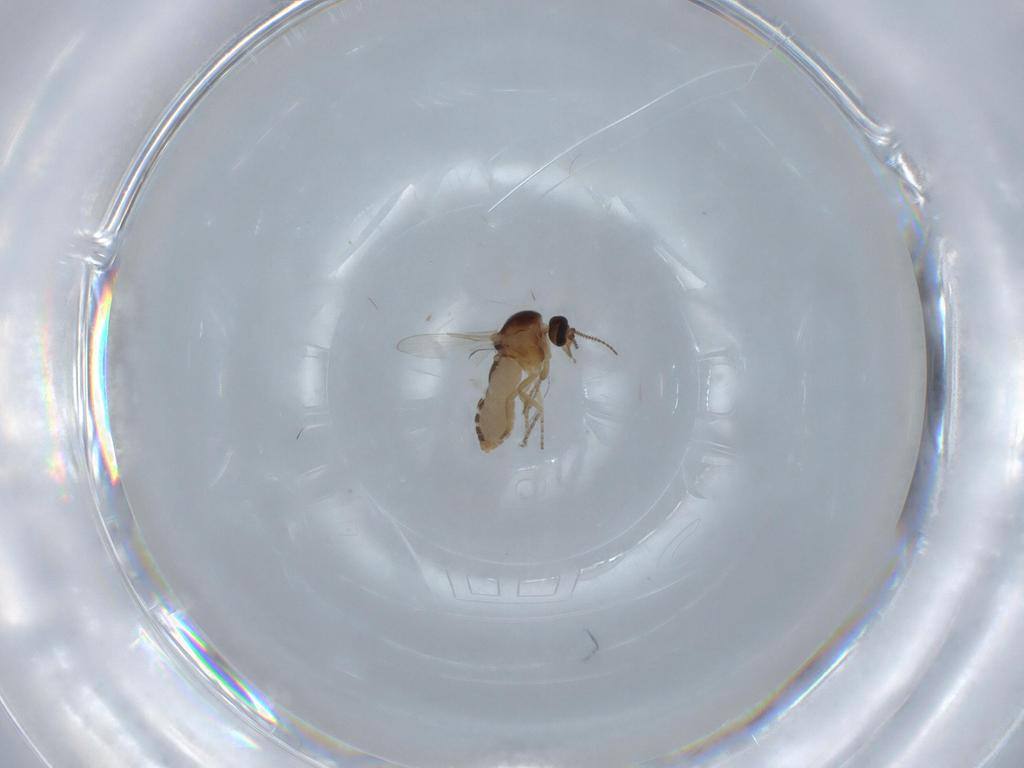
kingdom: Animalia
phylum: Arthropoda
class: Insecta
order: Diptera
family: Ceratopogonidae
